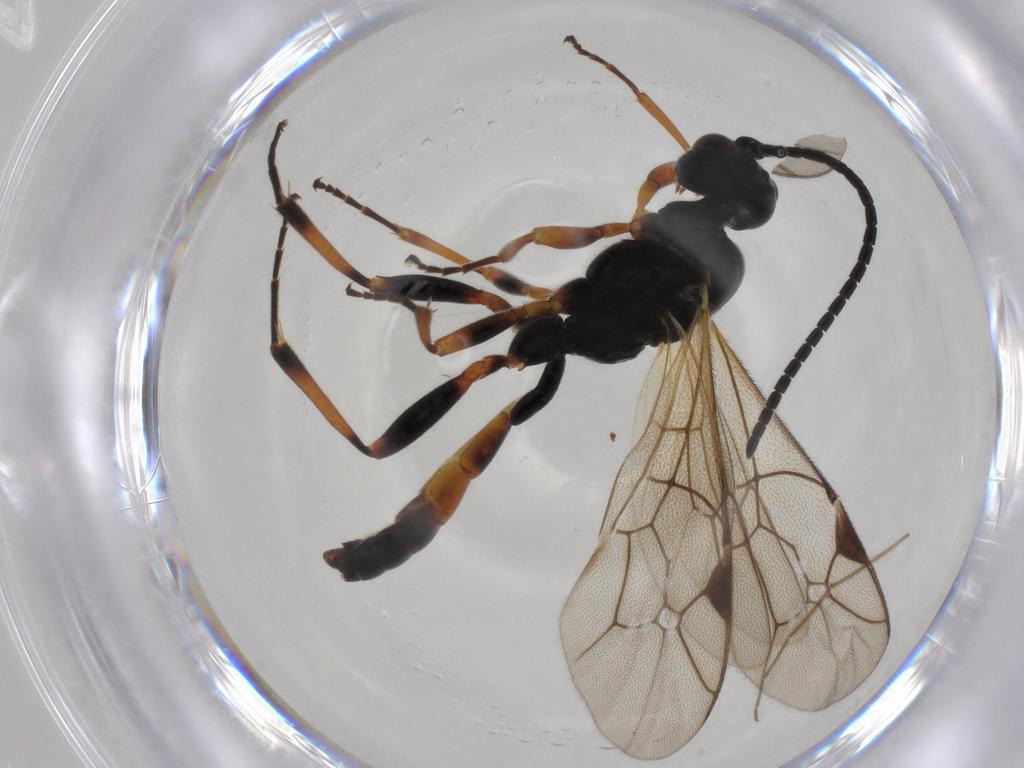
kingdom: Animalia
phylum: Arthropoda
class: Insecta
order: Hymenoptera
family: Ichneumonidae
